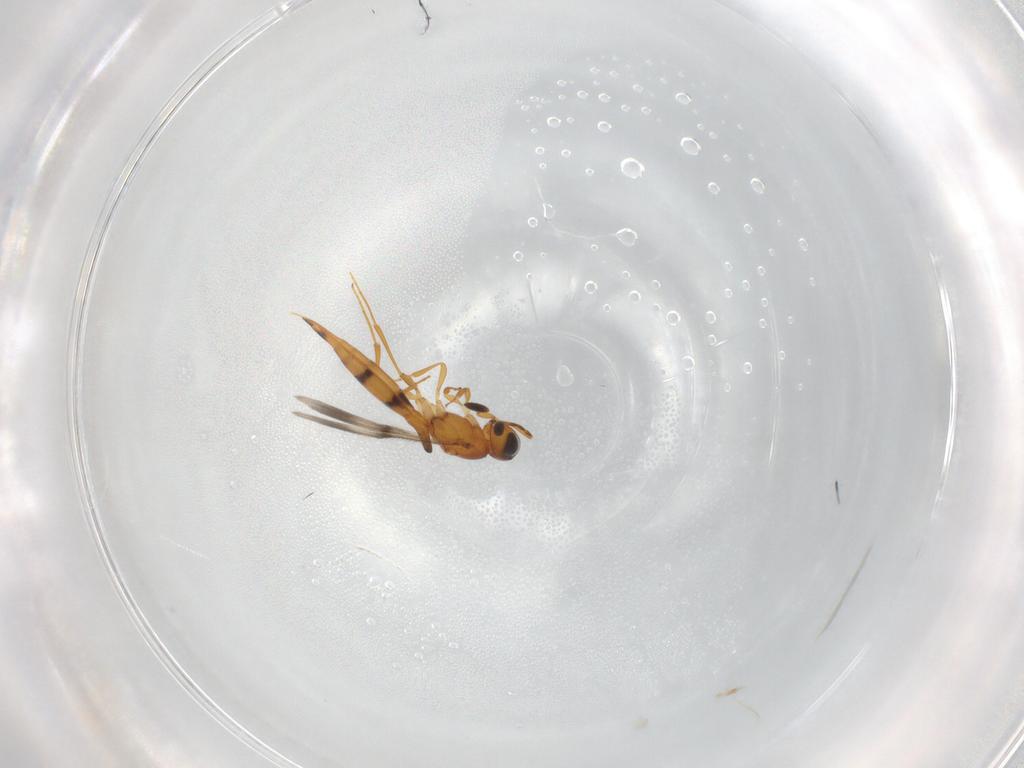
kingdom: Animalia
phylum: Arthropoda
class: Insecta
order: Hymenoptera
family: Scelionidae
